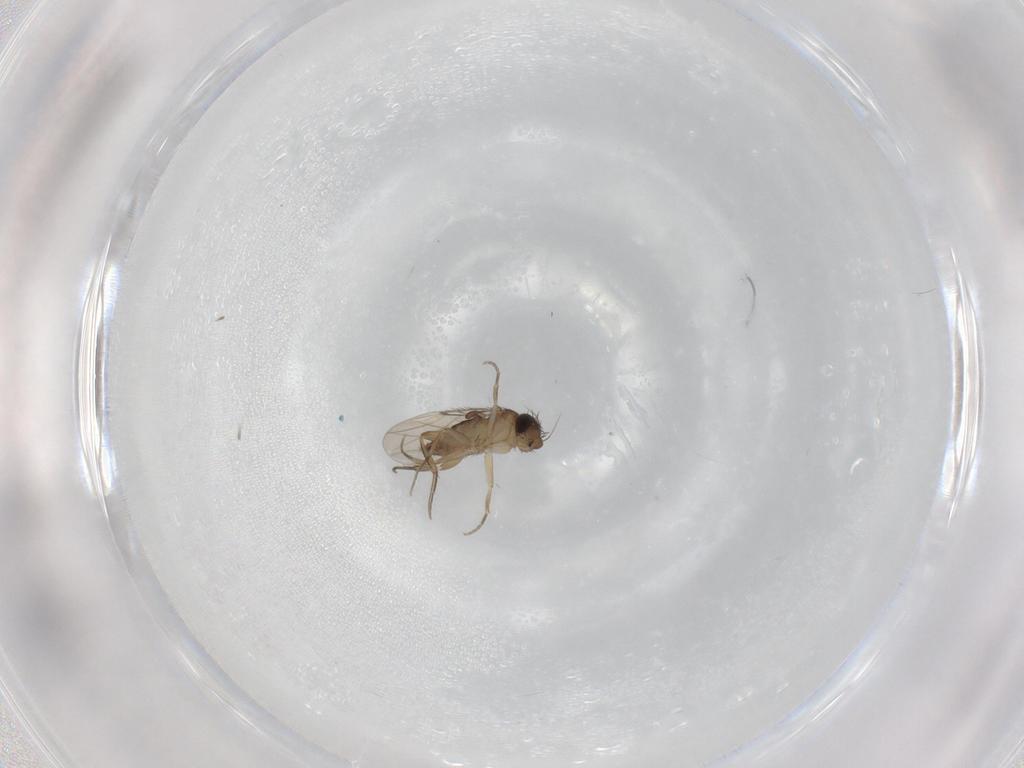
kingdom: Animalia
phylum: Arthropoda
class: Insecta
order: Diptera
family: Phoridae
